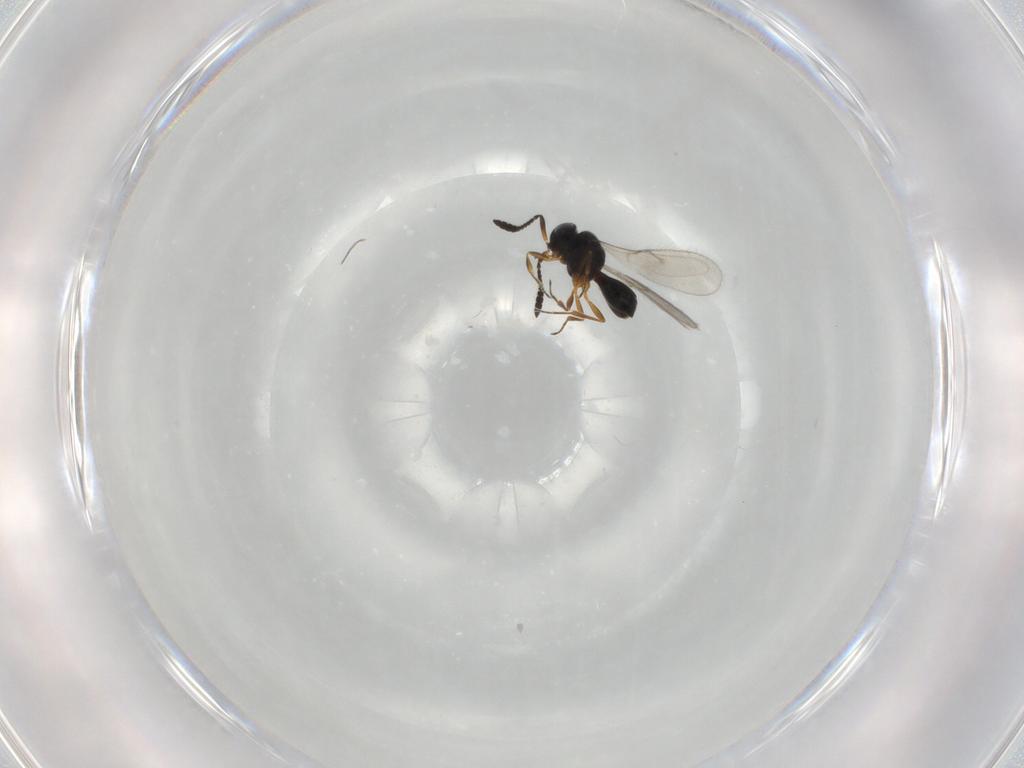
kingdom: Animalia
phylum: Arthropoda
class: Insecta
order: Hymenoptera
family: Scelionidae
